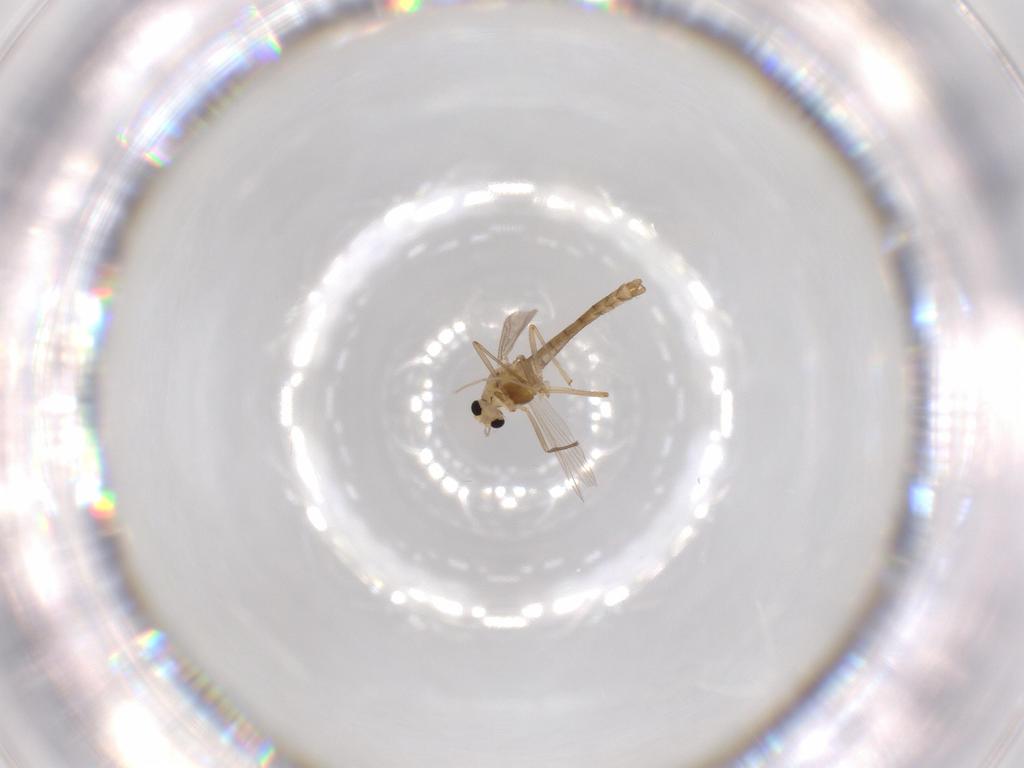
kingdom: Animalia
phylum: Arthropoda
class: Insecta
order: Diptera
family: Chironomidae
